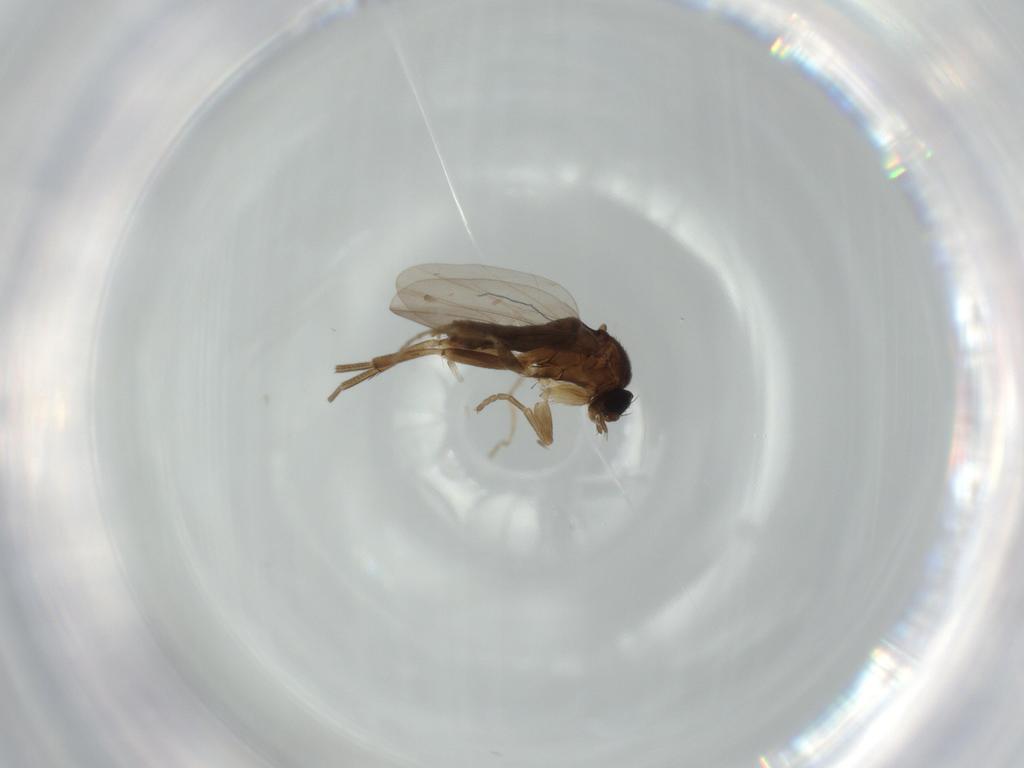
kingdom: Animalia
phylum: Arthropoda
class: Insecta
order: Diptera
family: Phoridae
